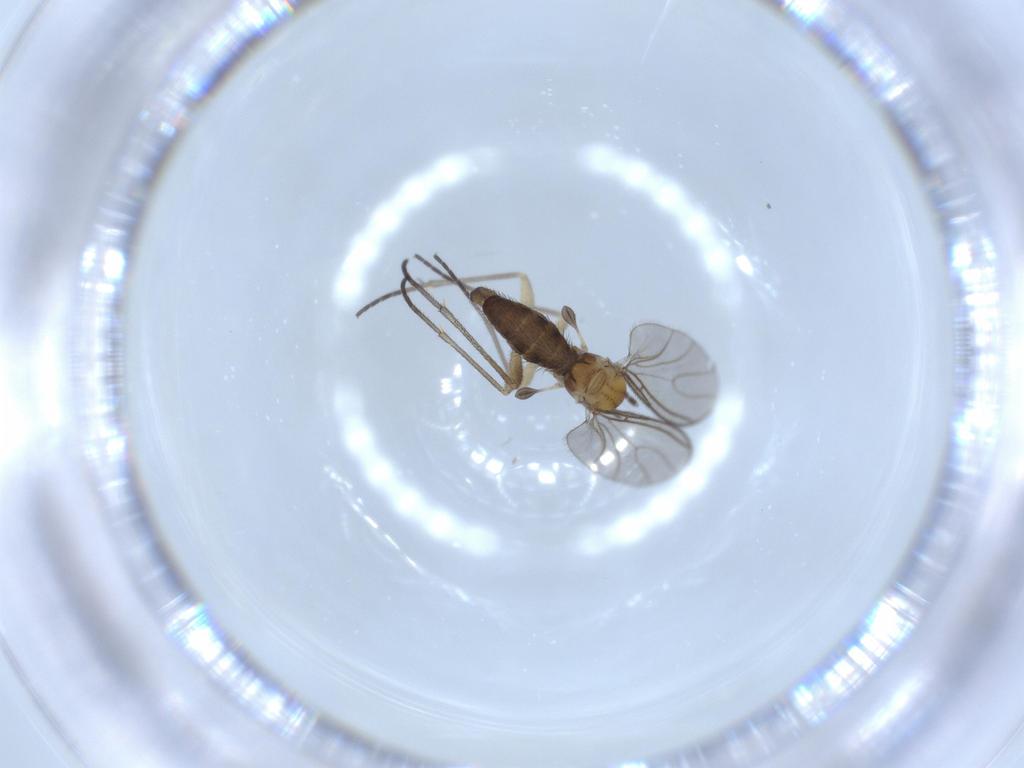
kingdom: Animalia
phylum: Arthropoda
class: Insecta
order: Diptera
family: Sciaridae
